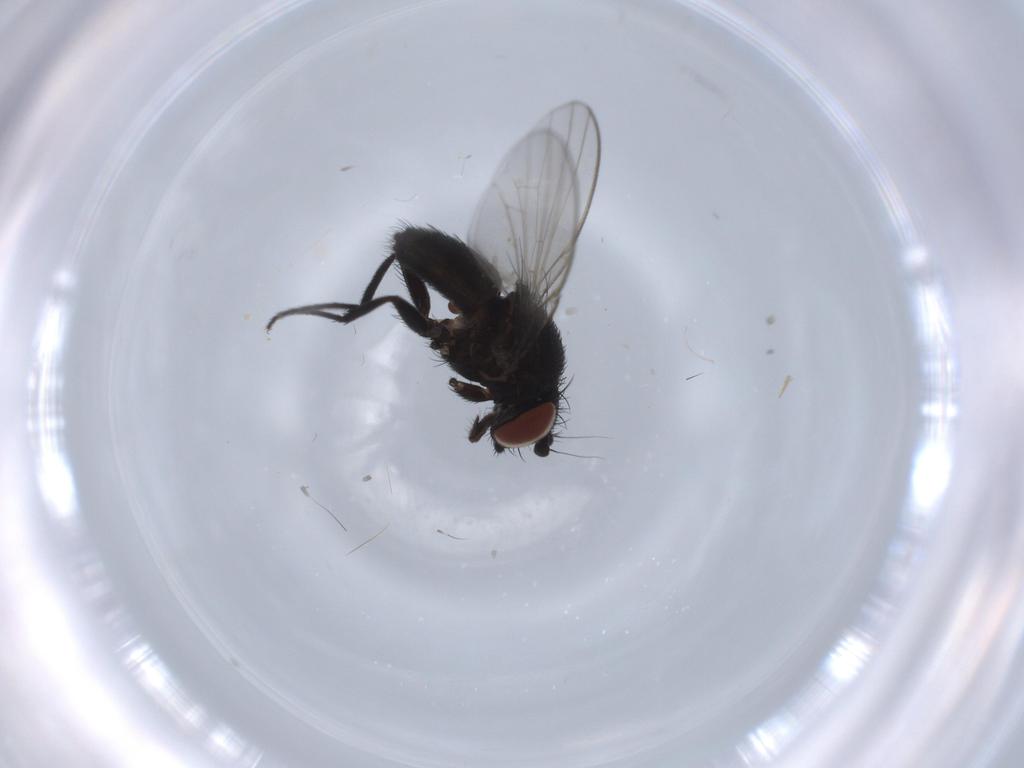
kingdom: Animalia
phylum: Arthropoda
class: Insecta
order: Diptera
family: Milichiidae
